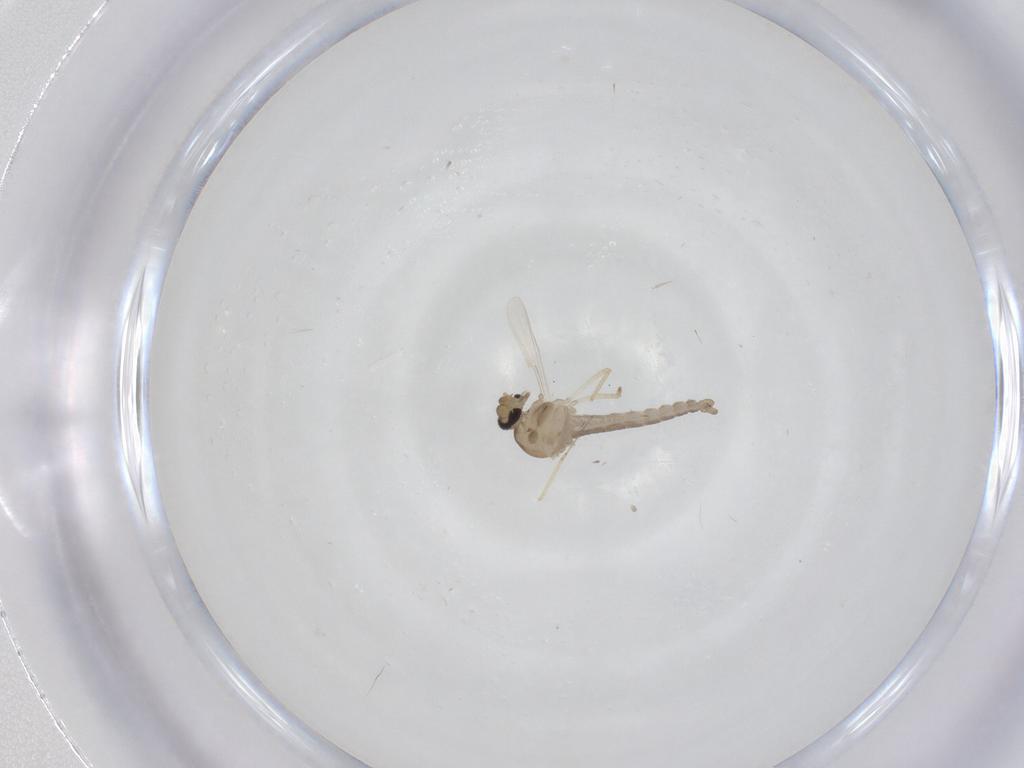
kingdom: Animalia
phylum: Arthropoda
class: Insecta
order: Diptera
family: Ceratopogonidae
